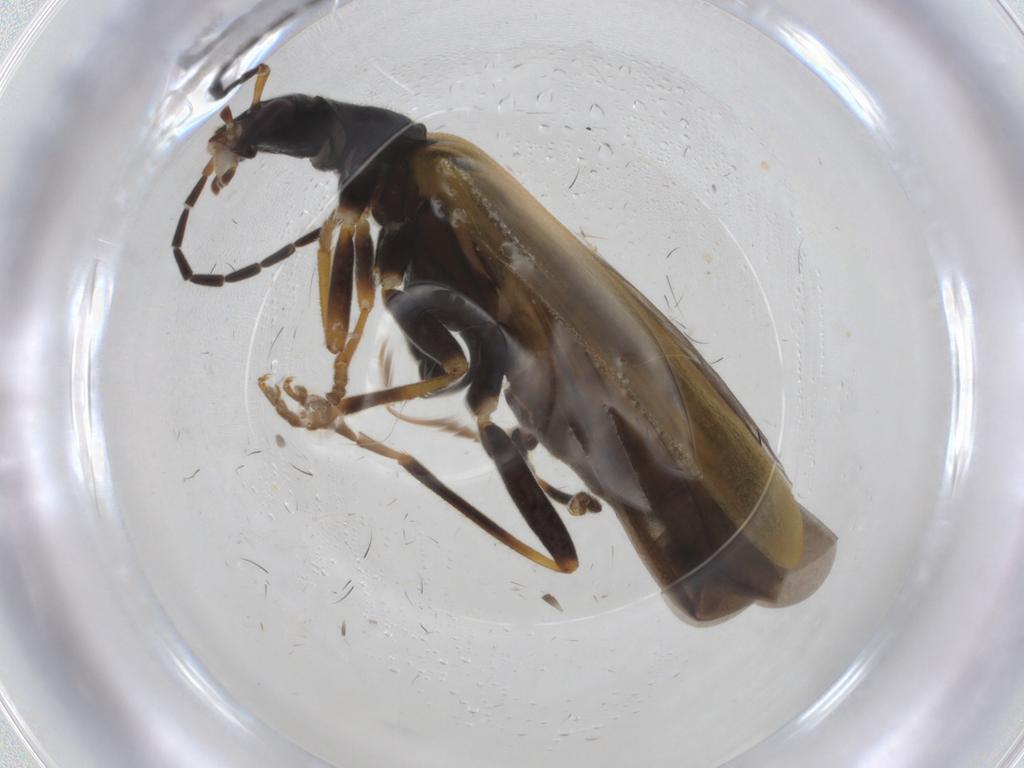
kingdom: Animalia
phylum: Arthropoda
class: Insecta
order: Coleoptera
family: Cantharidae
